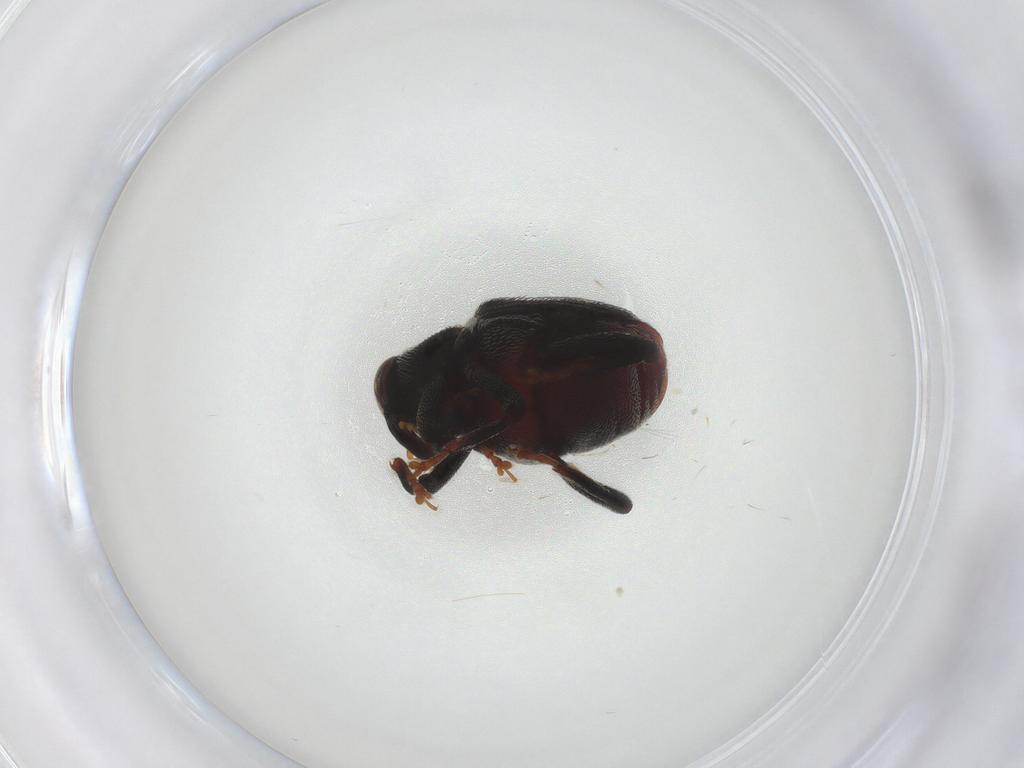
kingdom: Animalia
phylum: Arthropoda
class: Insecta
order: Coleoptera
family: Curculionidae
